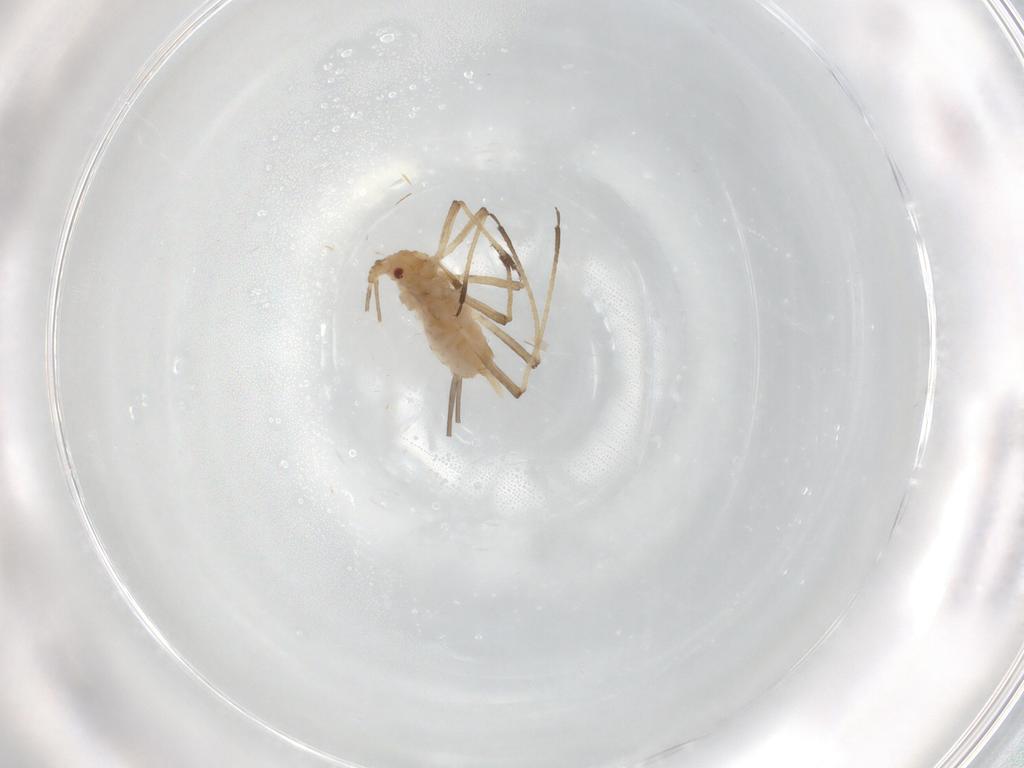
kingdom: Animalia
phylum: Arthropoda
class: Insecta
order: Hemiptera
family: Aphididae
